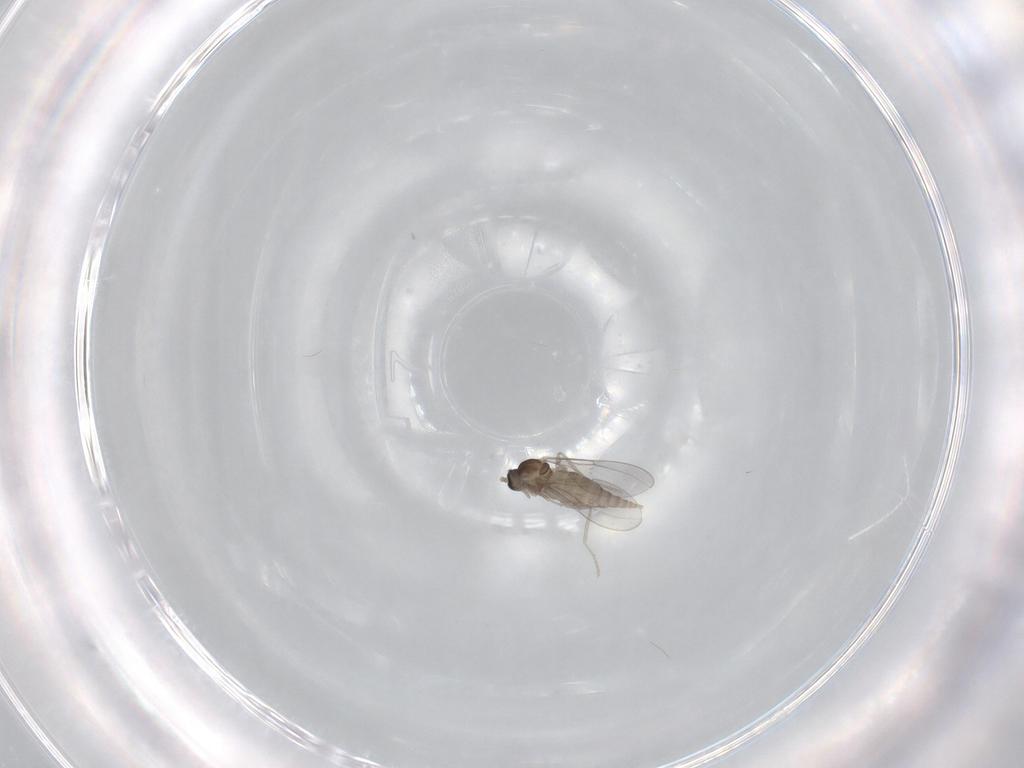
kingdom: Animalia
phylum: Arthropoda
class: Insecta
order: Diptera
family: Cecidomyiidae
